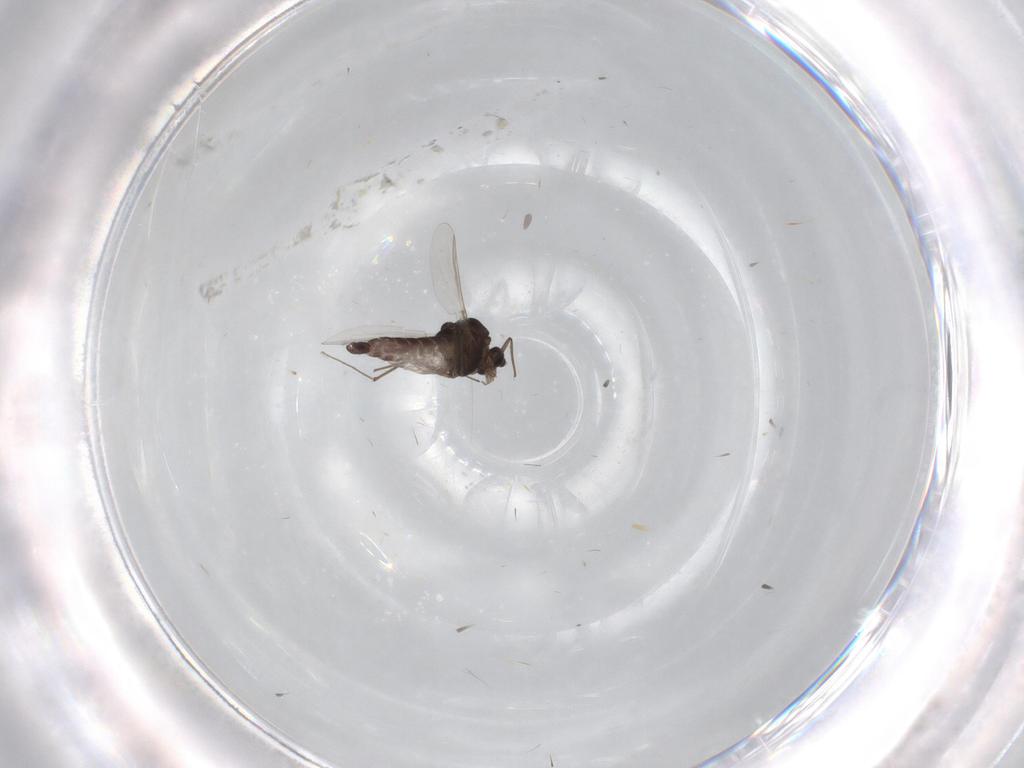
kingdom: Animalia
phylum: Arthropoda
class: Insecta
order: Diptera
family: Chironomidae
